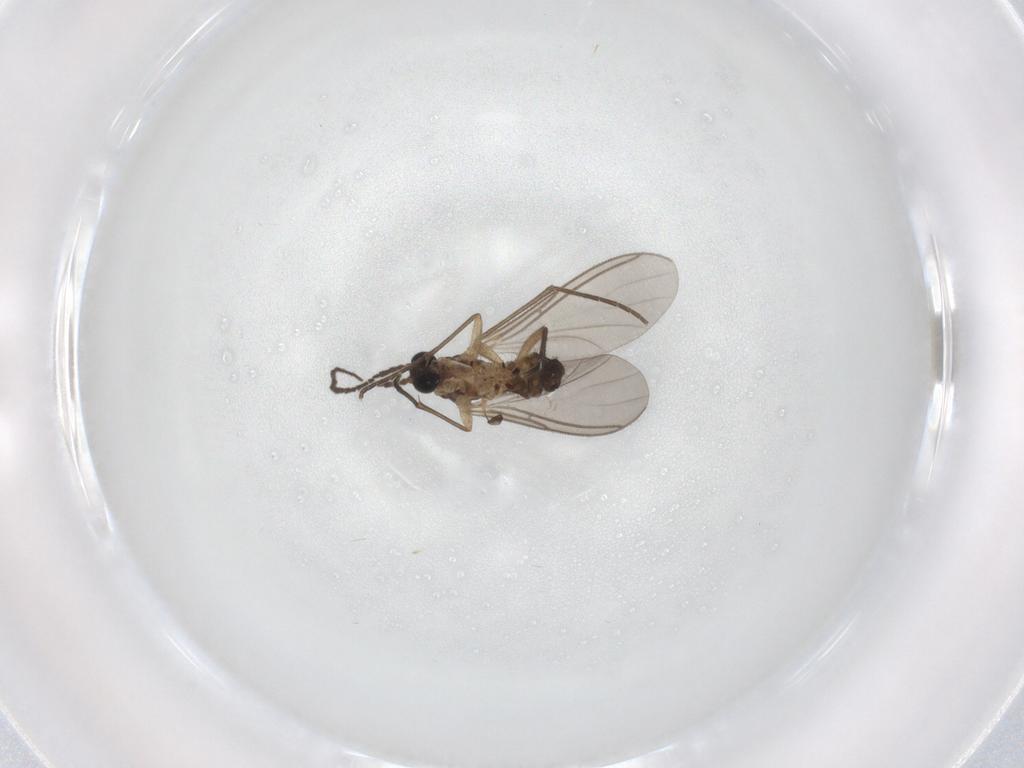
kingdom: Animalia
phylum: Arthropoda
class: Insecta
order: Diptera
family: Sciaridae
